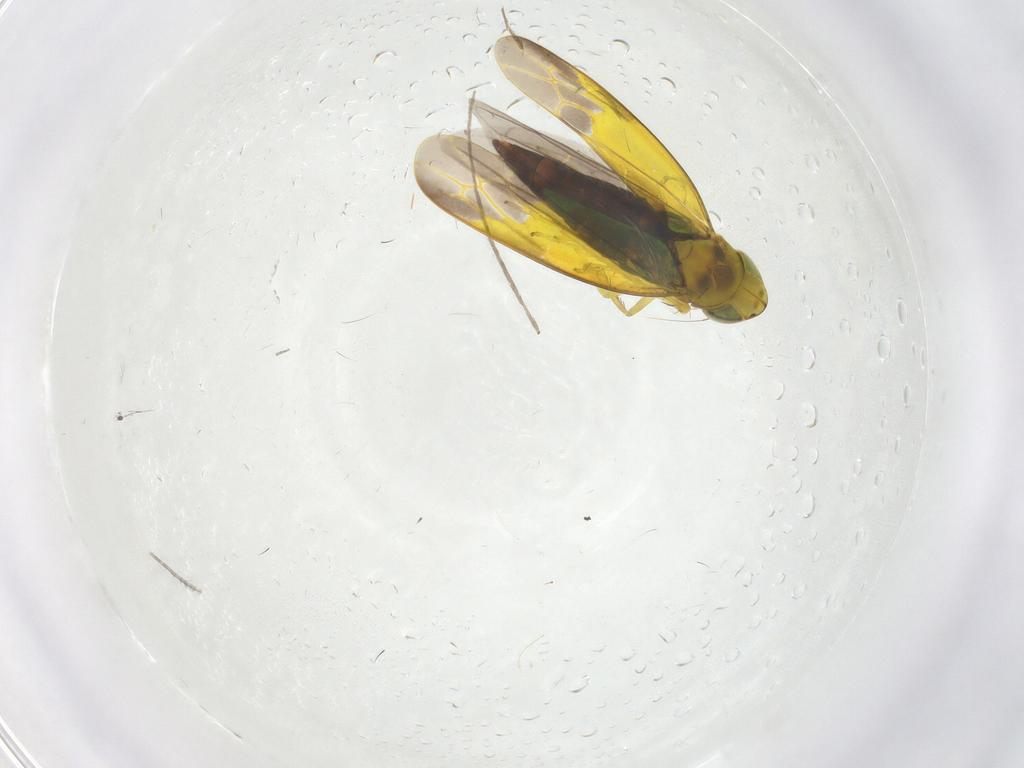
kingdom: Animalia
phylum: Arthropoda
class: Insecta
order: Hemiptera
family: Cicadellidae
